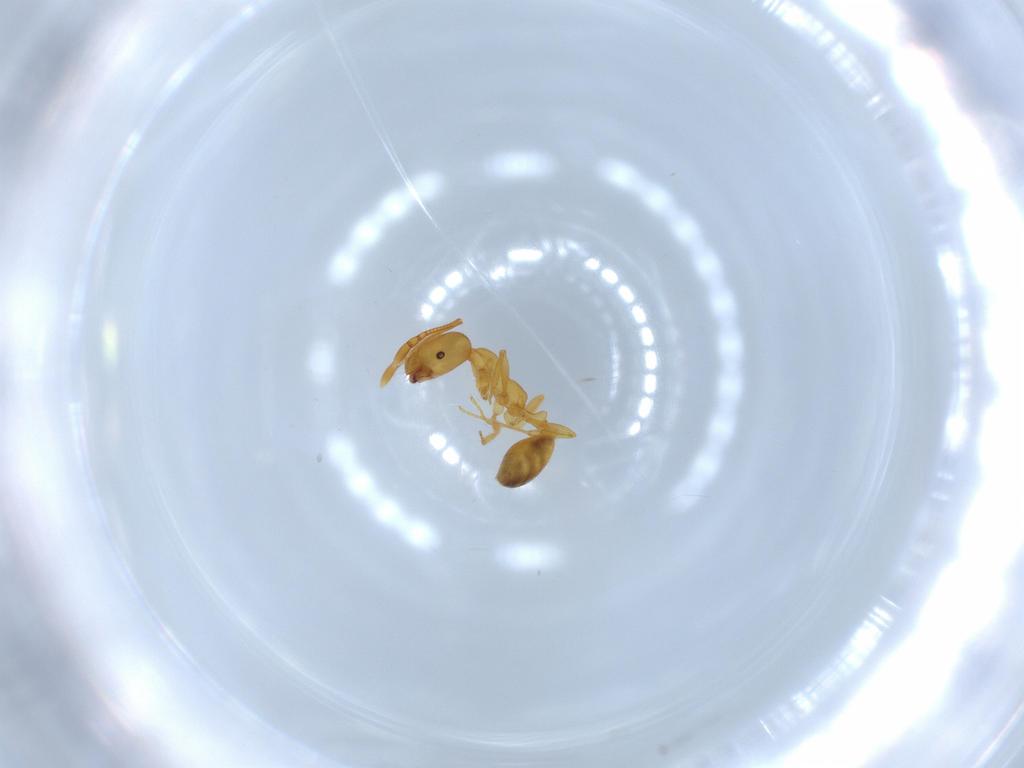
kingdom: Animalia
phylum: Arthropoda
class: Insecta
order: Hymenoptera
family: Formicidae
